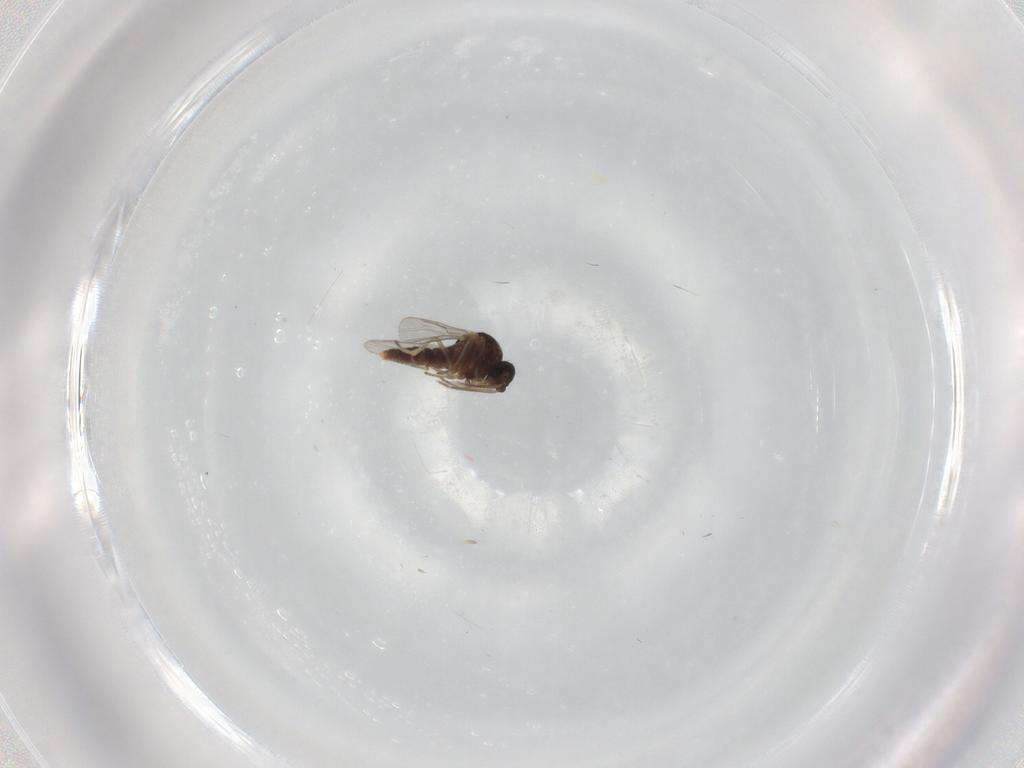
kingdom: Animalia
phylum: Arthropoda
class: Insecta
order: Diptera
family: Ceratopogonidae
